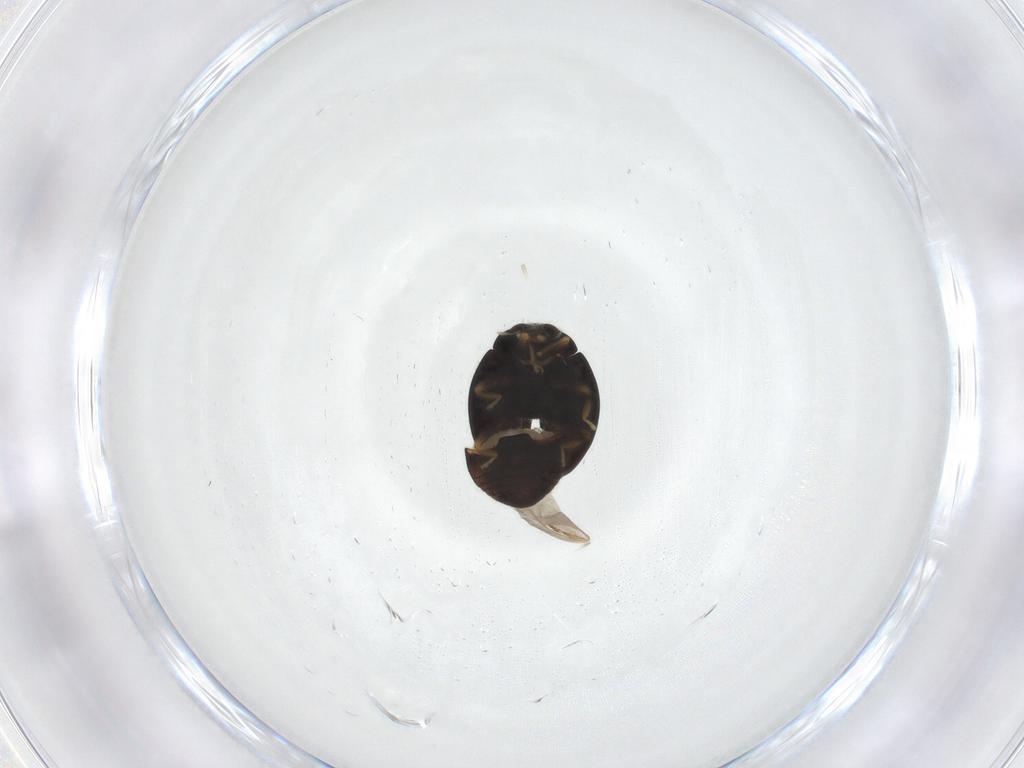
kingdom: Animalia
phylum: Arthropoda
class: Insecta
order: Coleoptera
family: Coccinellidae
